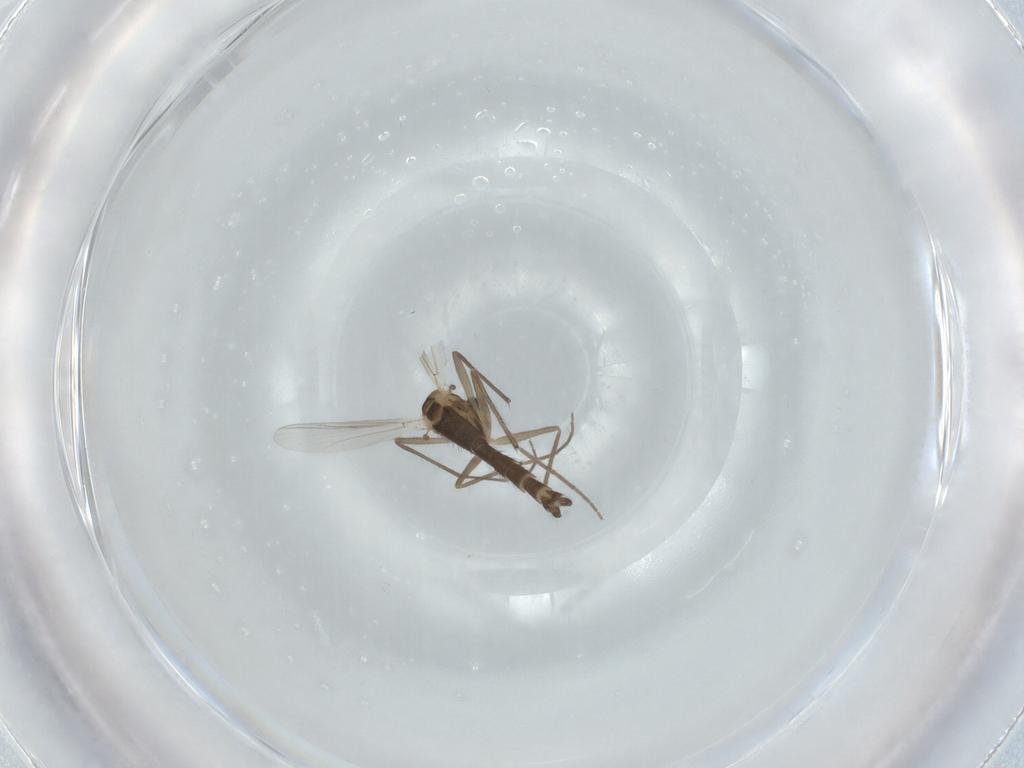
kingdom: Animalia
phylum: Arthropoda
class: Insecta
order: Diptera
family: Chironomidae
